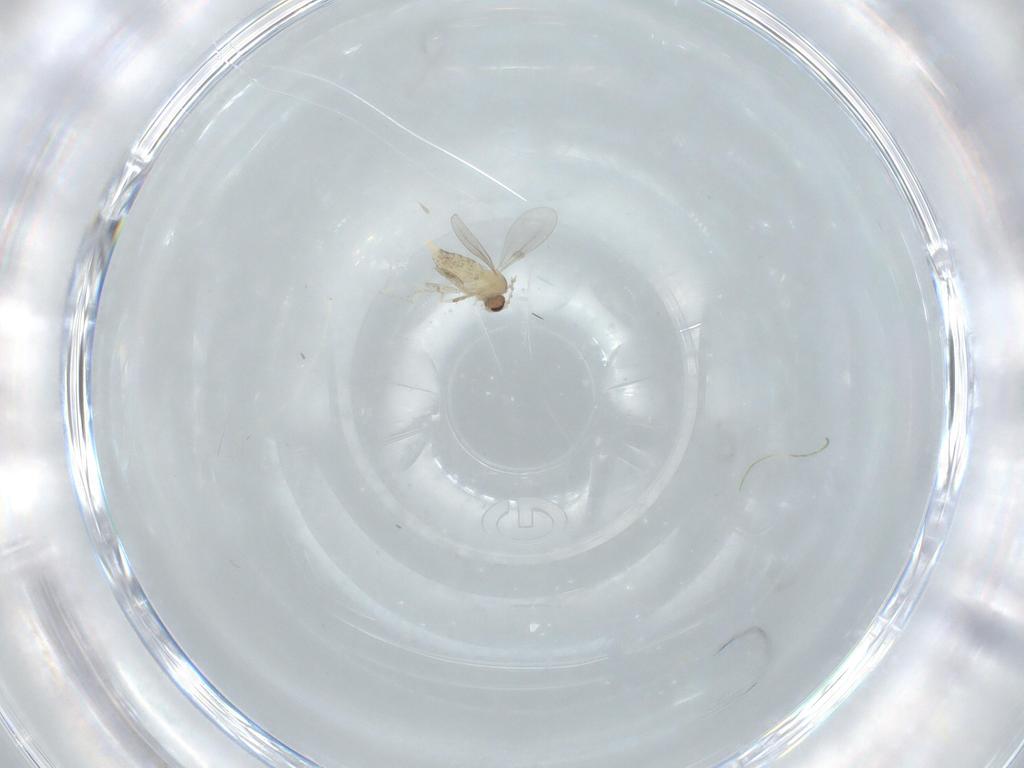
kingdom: Animalia
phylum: Arthropoda
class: Insecta
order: Diptera
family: Cecidomyiidae
